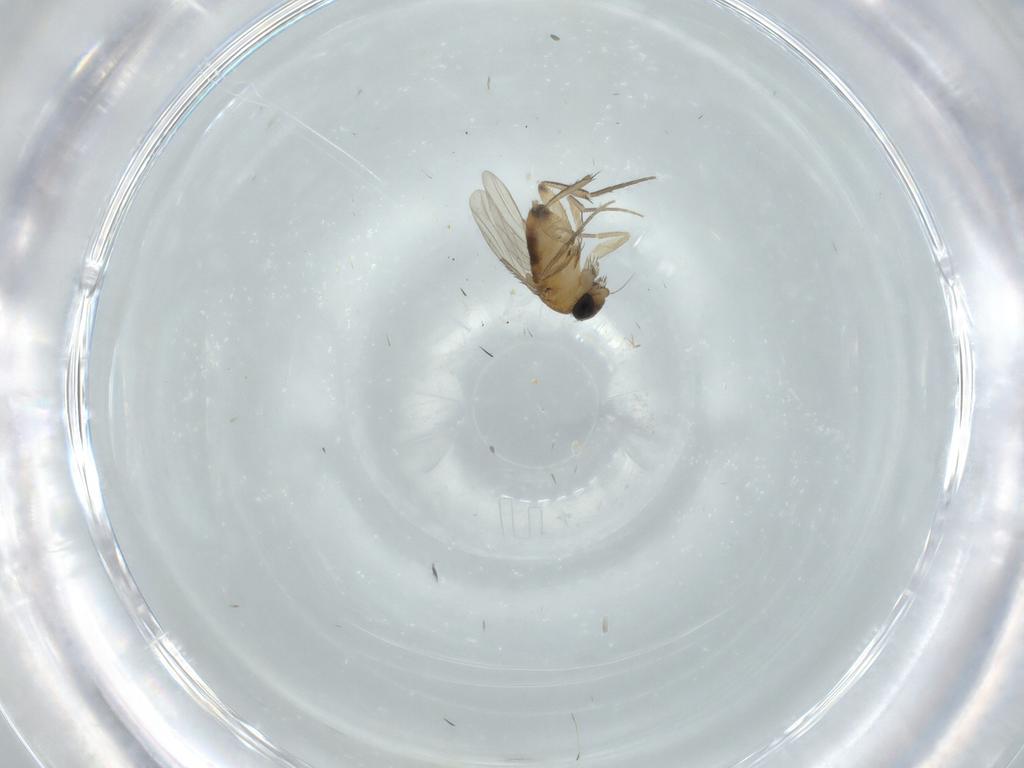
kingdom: Animalia
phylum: Arthropoda
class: Insecta
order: Diptera
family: Phoridae
